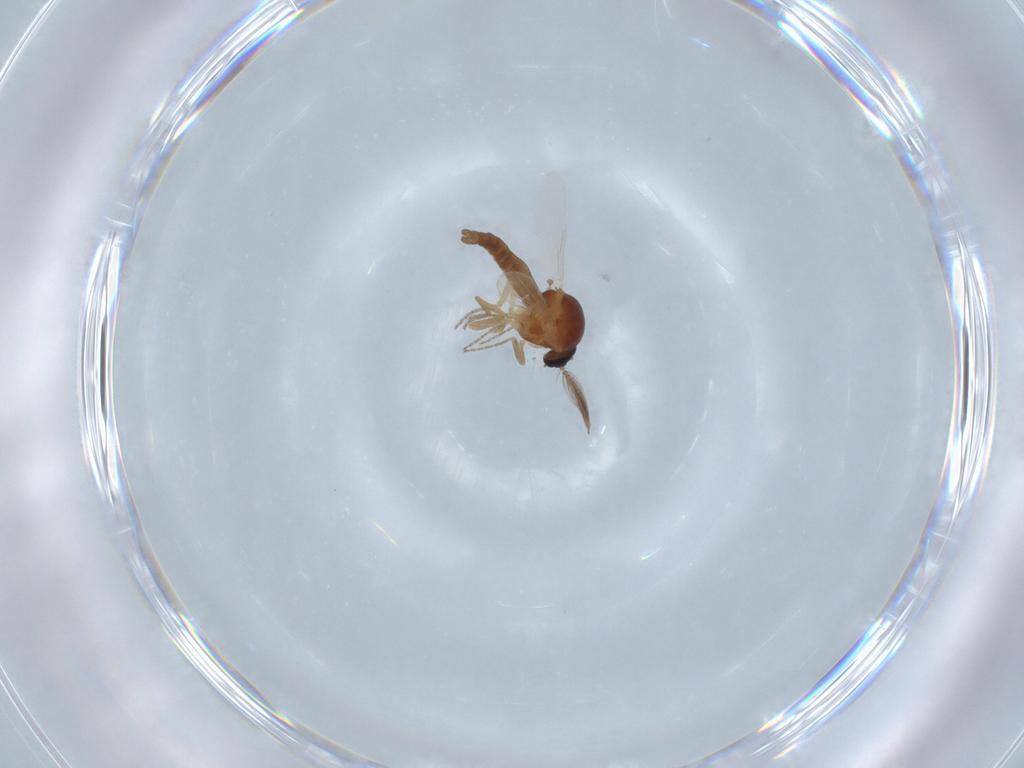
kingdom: Animalia
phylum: Arthropoda
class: Insecta
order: Diptera
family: Ceratopogonidae
